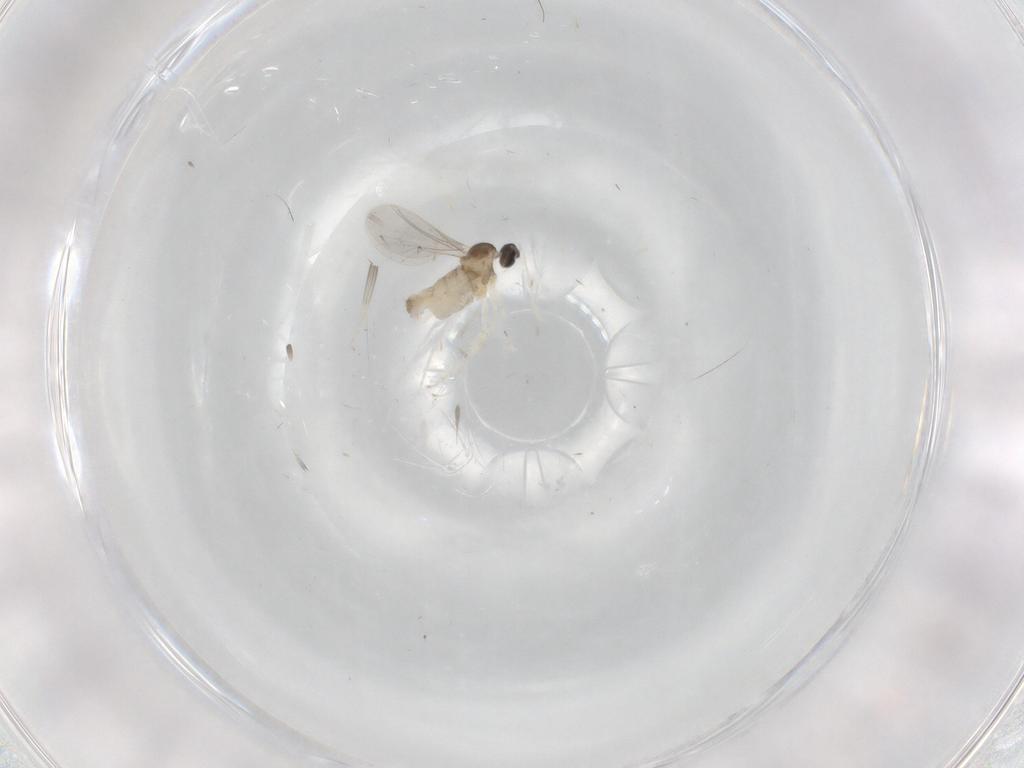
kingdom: Animalia
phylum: Arthropoda
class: Insecta
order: Diptera
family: Cecidomyiidae
